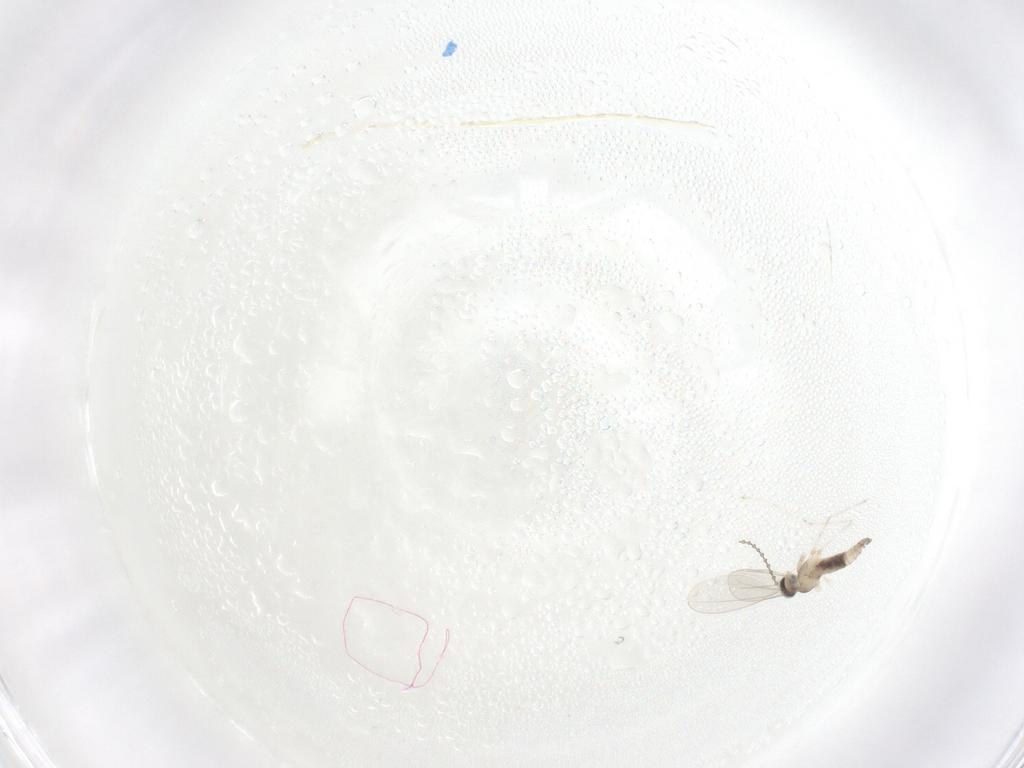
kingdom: Animalia
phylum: Arthropoda
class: Insecta
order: Diptera
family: Cecidomyiidae
